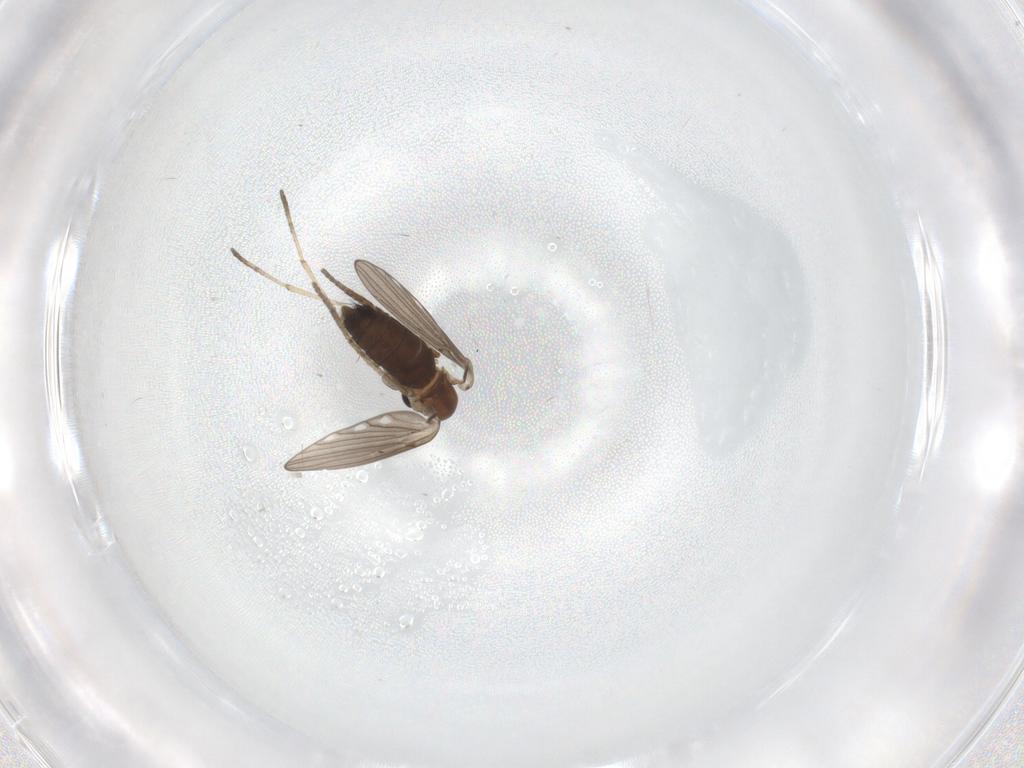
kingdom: Animalia
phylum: Arthropoda
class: Insecta
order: Diptera
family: Psychodidae
